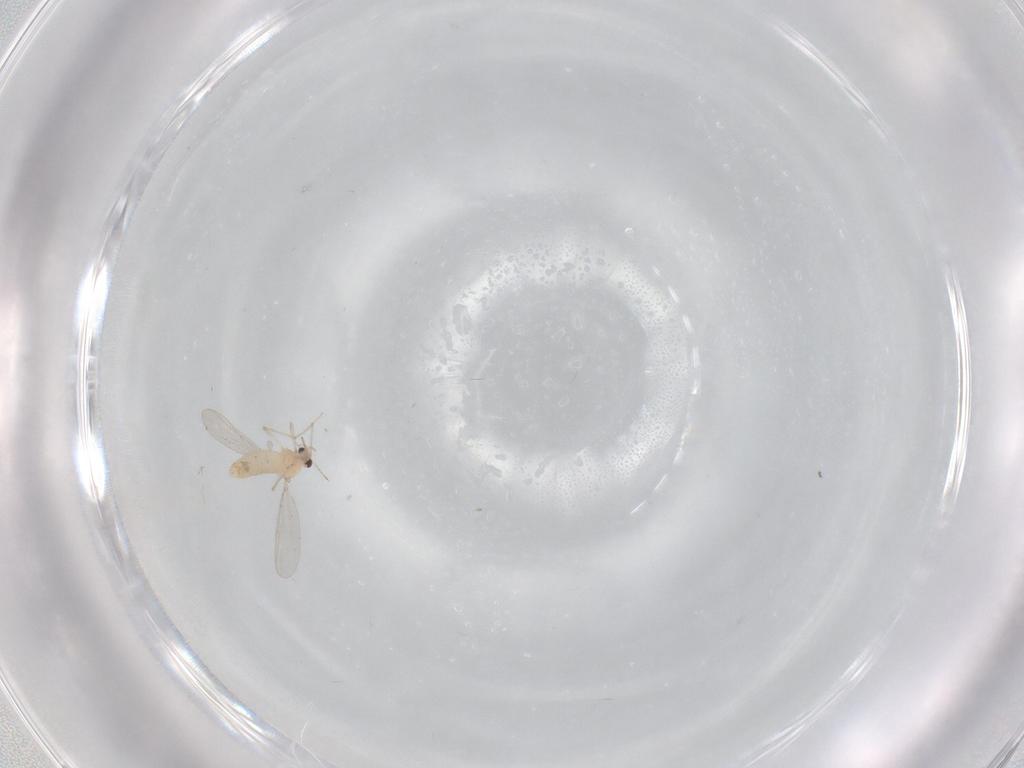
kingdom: Animalia
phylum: Arthropoda
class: Insecta
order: Diptera
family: Chironomidae
